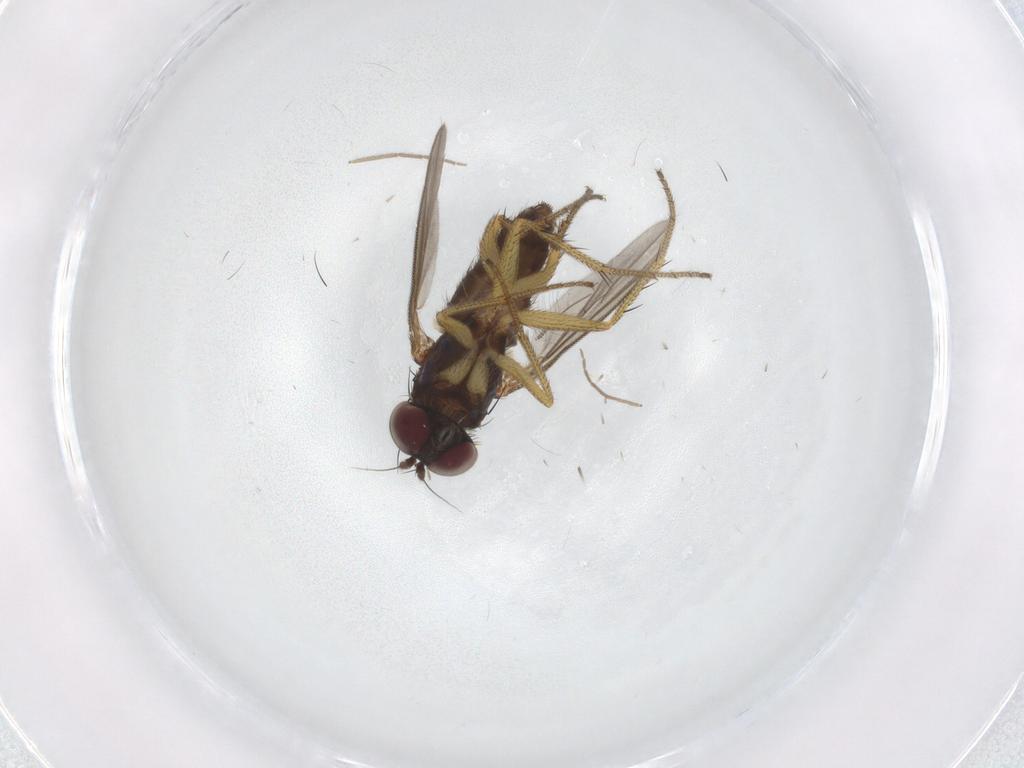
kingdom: Animalia
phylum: Arthropoda
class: Insecta
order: Diptera
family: Chironomidae
